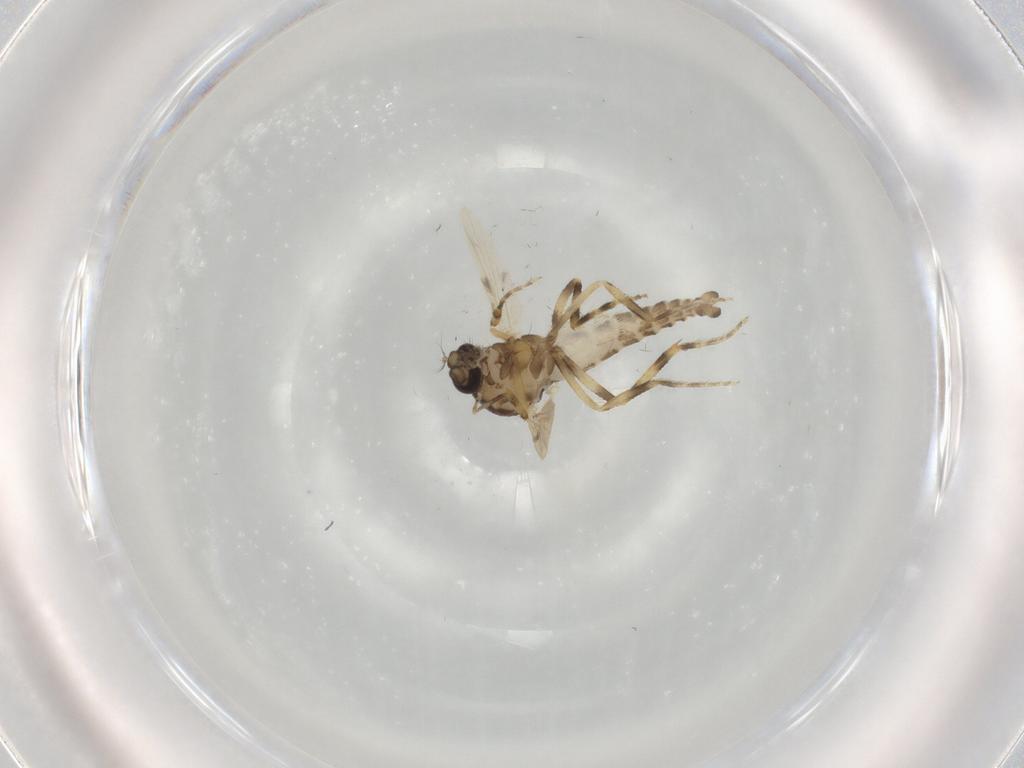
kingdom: Animalia
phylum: Arthropoda
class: Insecta
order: Diptera
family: Ceratopogonidae
